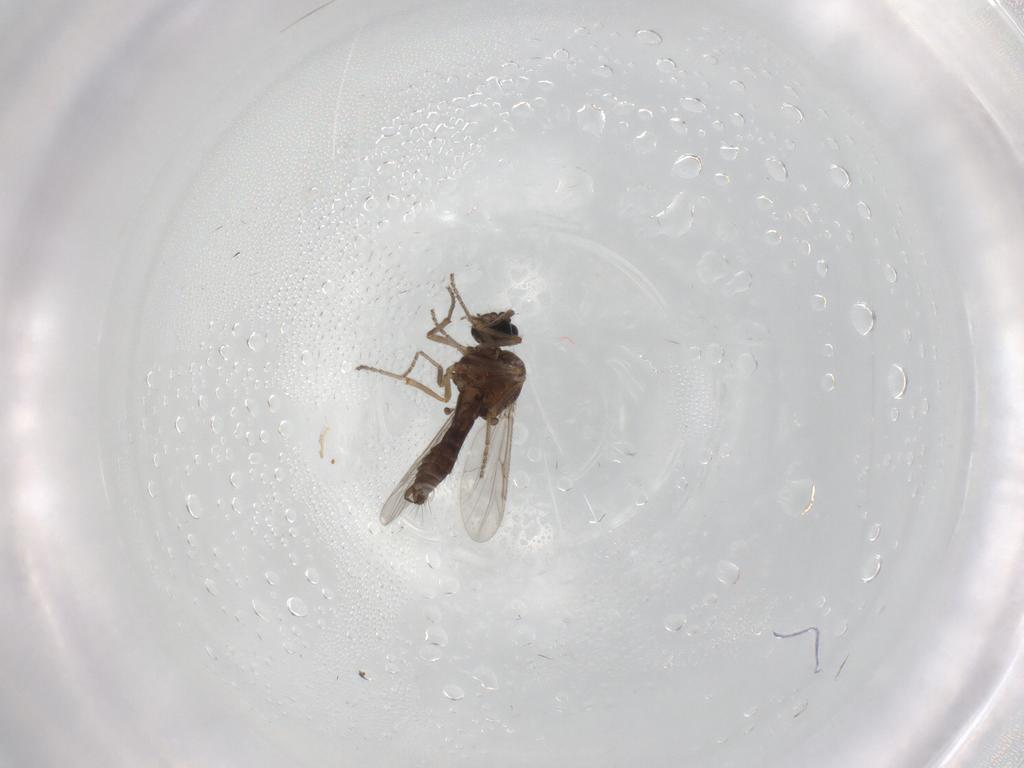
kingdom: Animalia
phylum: Arthropoda
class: Insecta
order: Diptera
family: Ceratopogonidae
